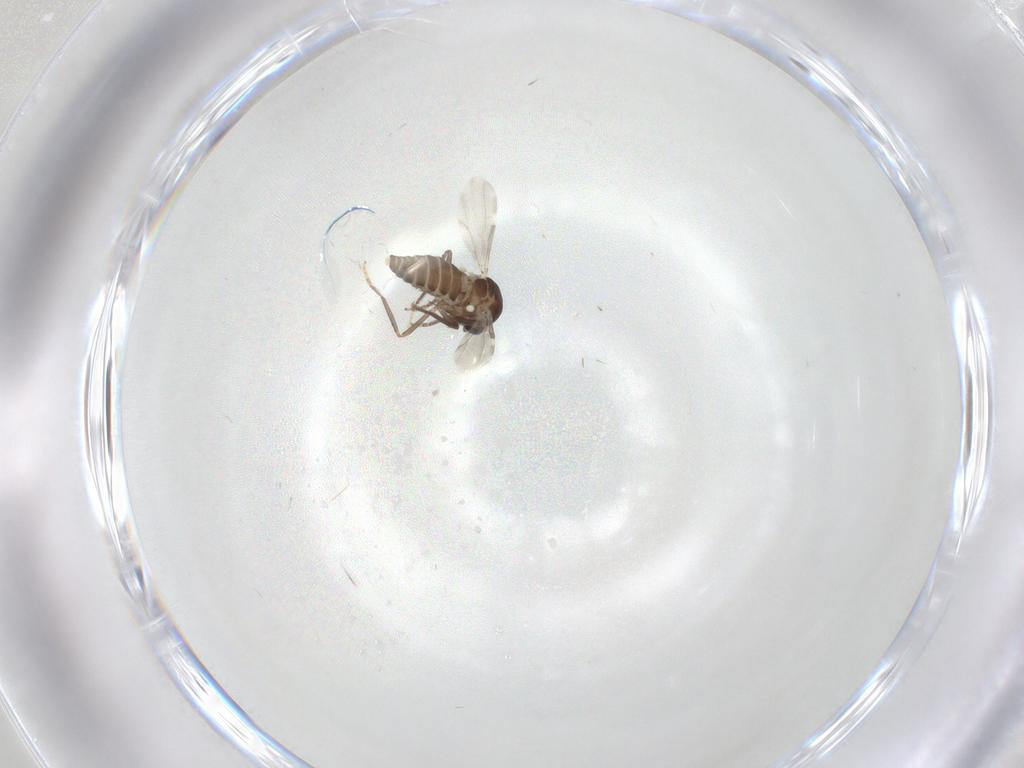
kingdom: Animalia
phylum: Arthropoda
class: Insecta
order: Diptera
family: Ceratopogonidae
